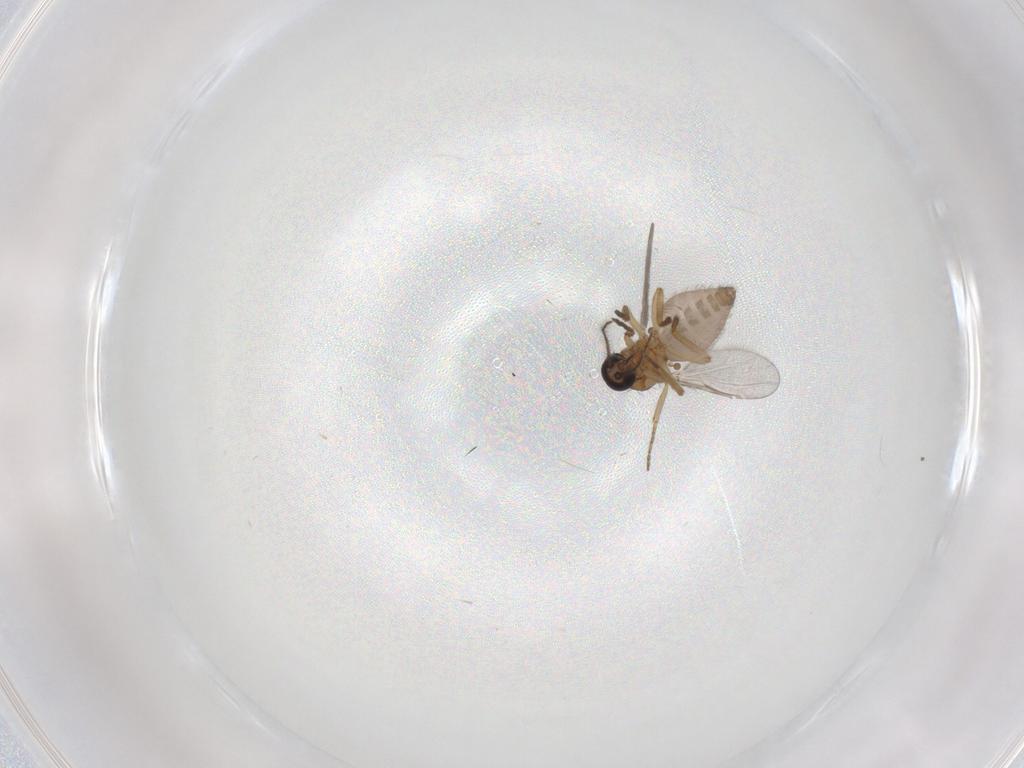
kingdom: Animalia
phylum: Arthropoda
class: Insecta
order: Diptera
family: Ceratopogonidae
